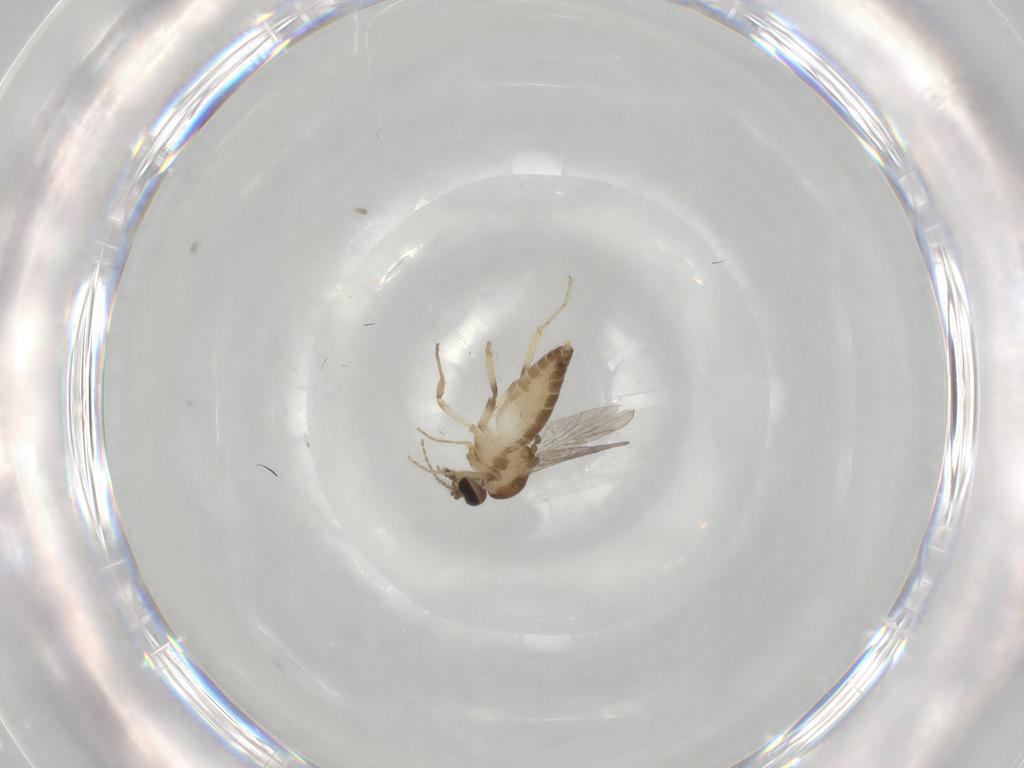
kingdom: Animalia
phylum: Arthropoda
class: Insecta
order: Diptera
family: Ceratopogonidae
